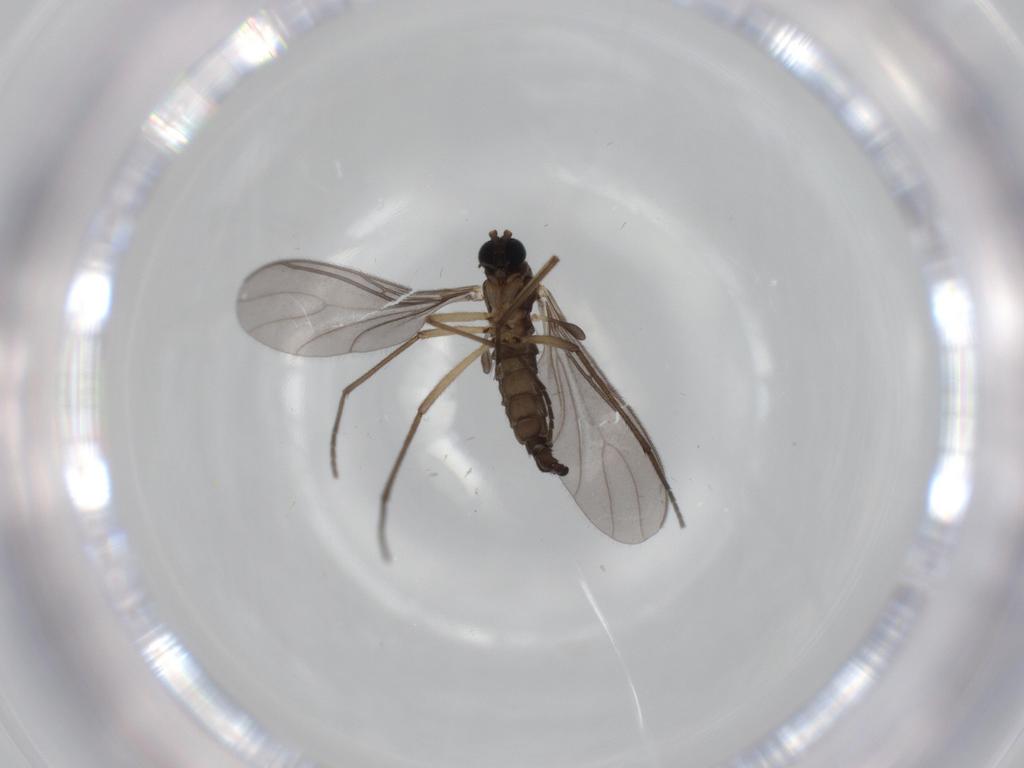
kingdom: Animalia
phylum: Arthropoda
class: Insecta
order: Diptera
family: Sciaridae
